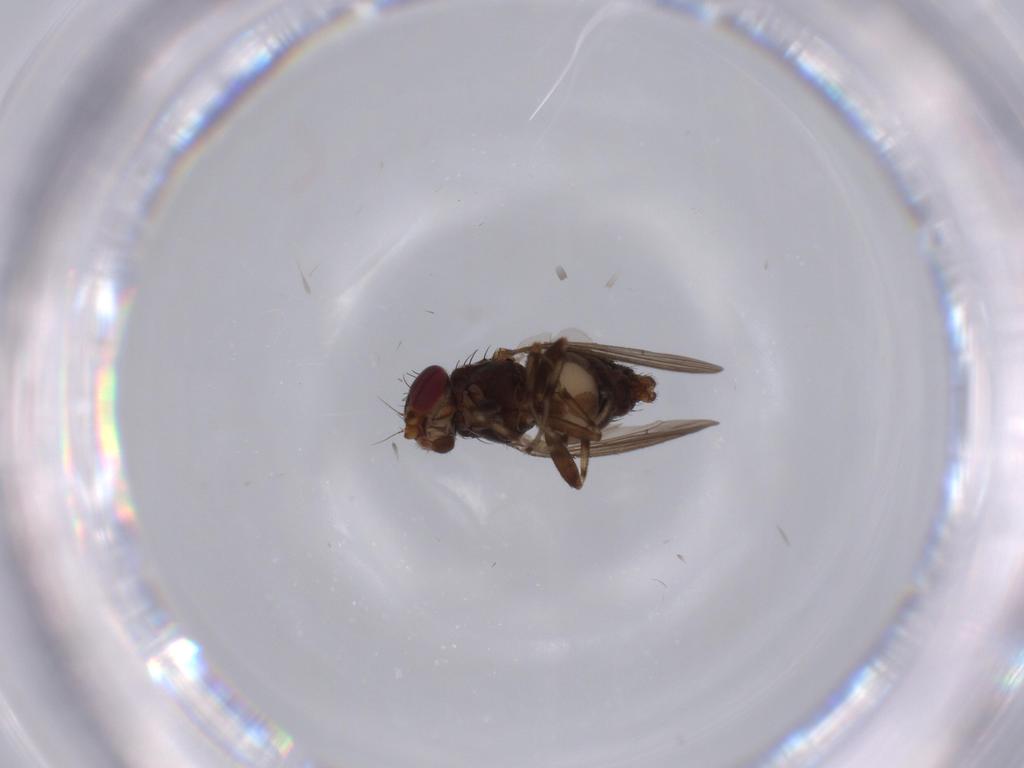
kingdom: Animalia
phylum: Arthropoda
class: Insecta
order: Diptera
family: Heleomyzidae
